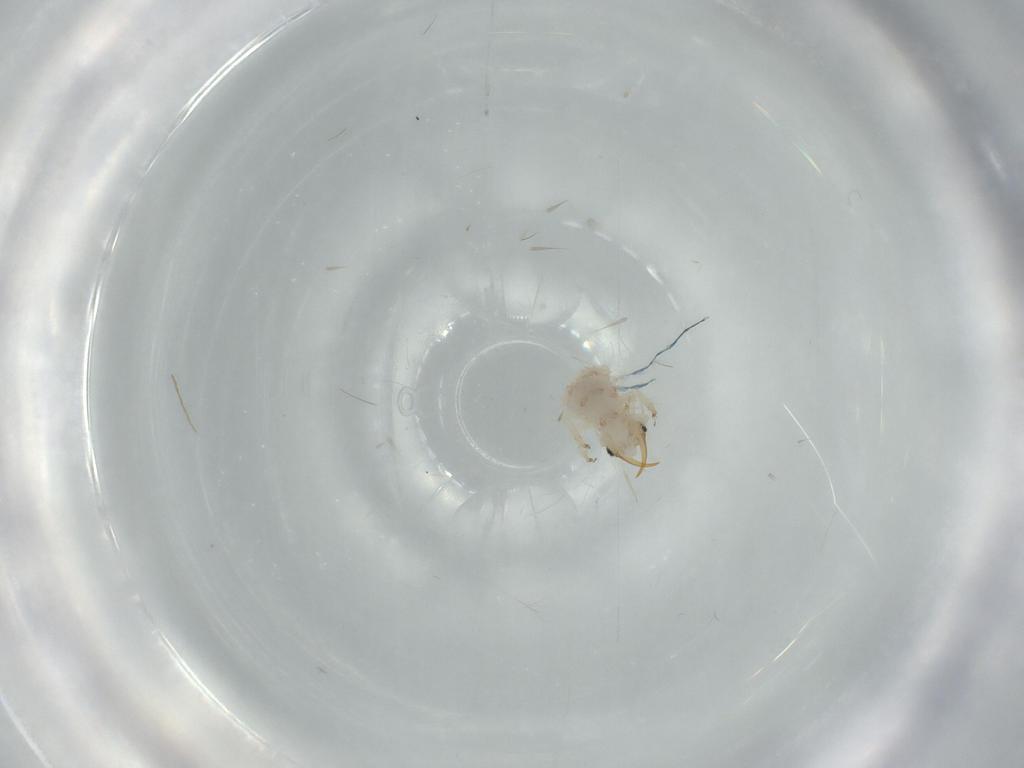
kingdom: Animalia
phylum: Arthropoda
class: Insecta
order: Neuroptera
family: Chrysopidae
